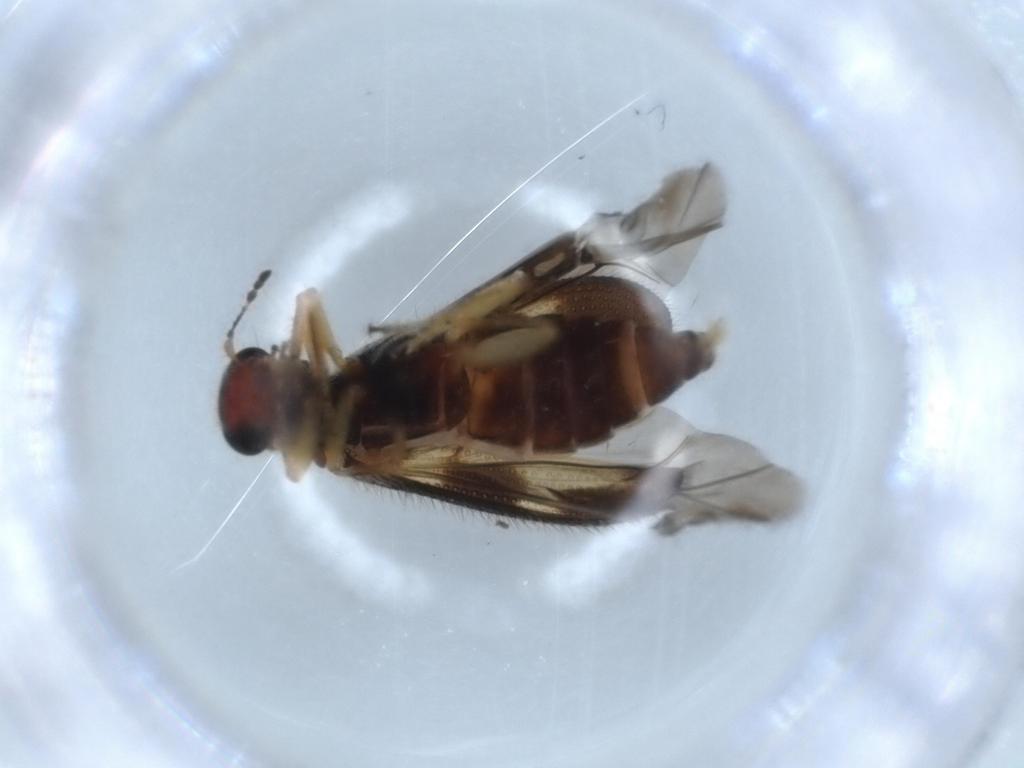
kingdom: Animalia
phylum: Arthropoda
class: Insecta
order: Coleoptera
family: Cleridae
